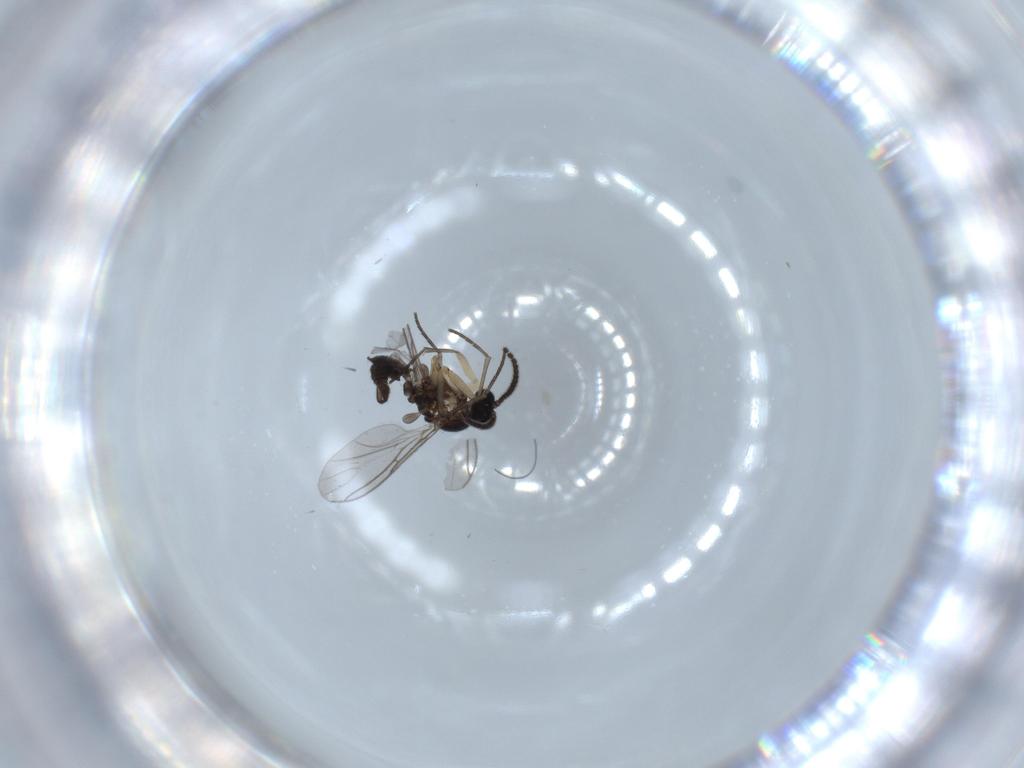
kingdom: Animalia
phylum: Arthropoda
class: Insecta
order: Diptera
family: Sciaridae
